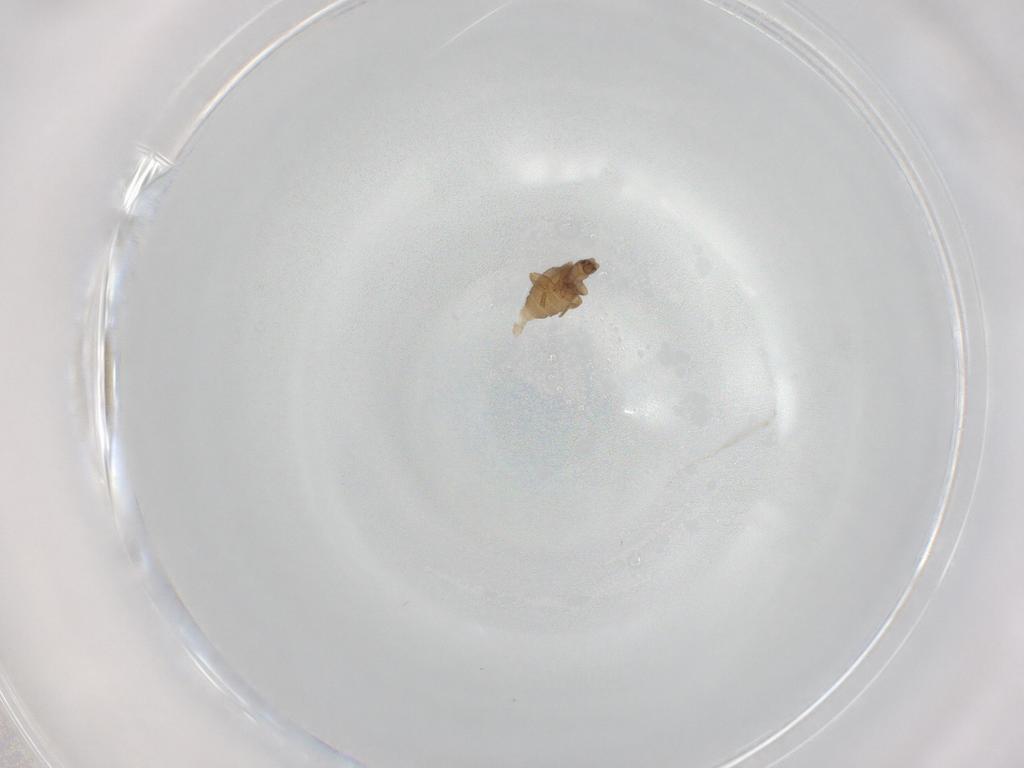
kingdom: Animalia
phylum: Arthropoda
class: Insecta
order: Diptera
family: Phoridae
